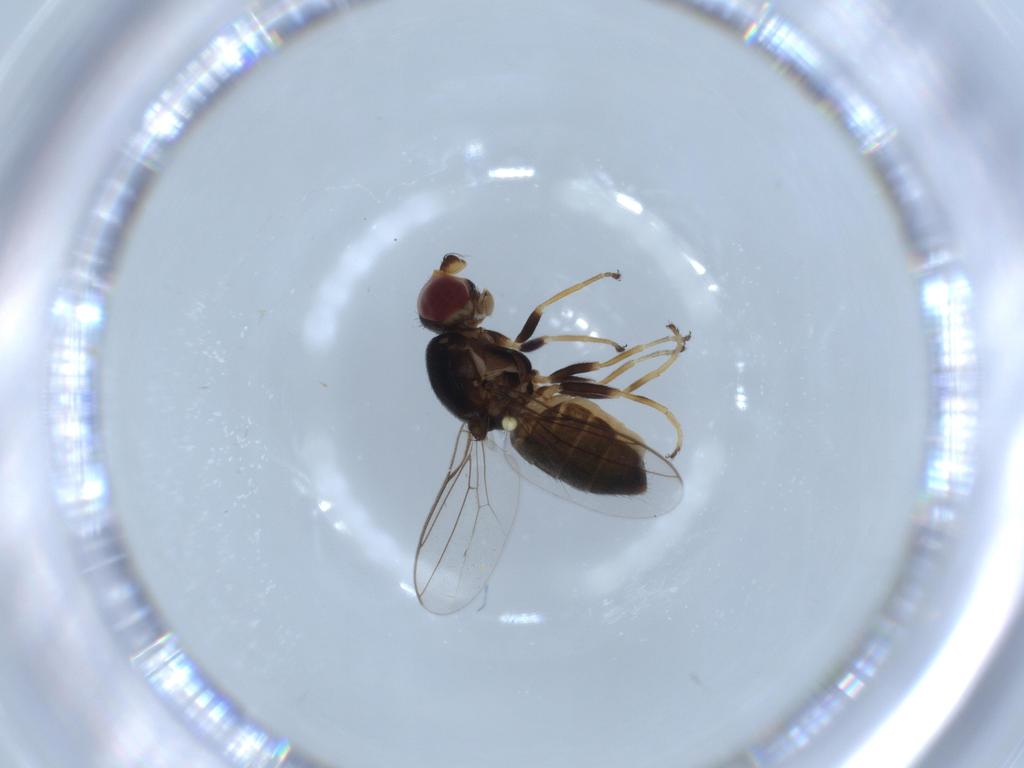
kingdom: Animalia
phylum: Arthropoda
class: Insecta
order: Diptera
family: Chloropidae
